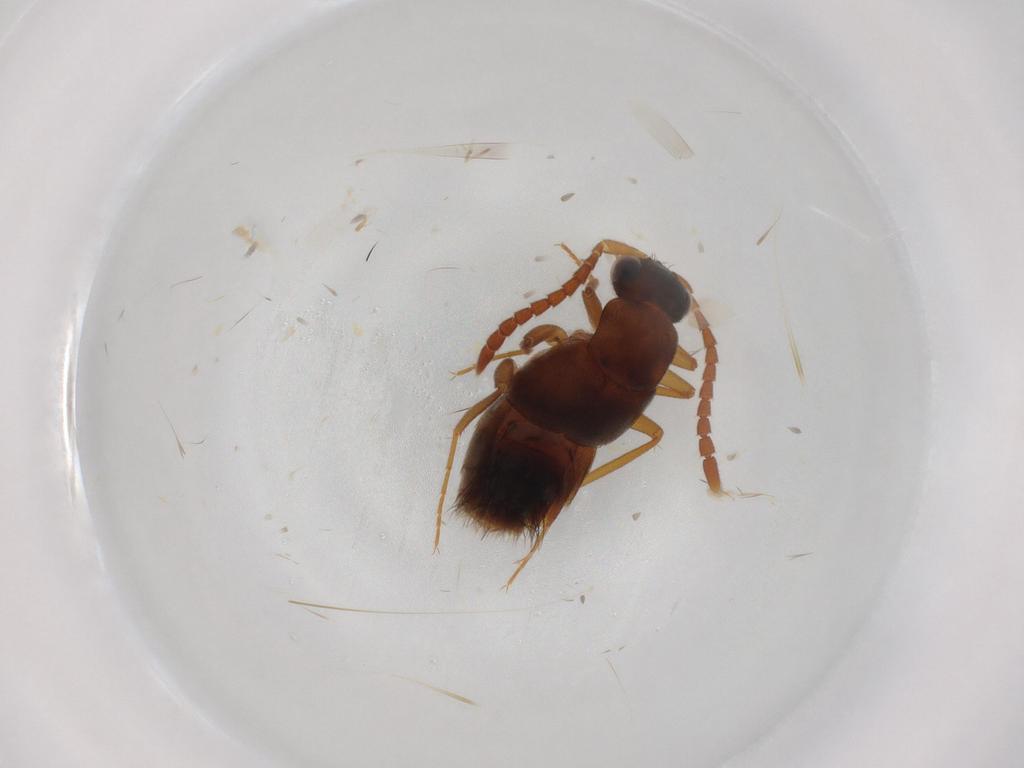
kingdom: Animalia
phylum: Arthropoda
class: Insecta
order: Coleoptera
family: Staphylinidae
